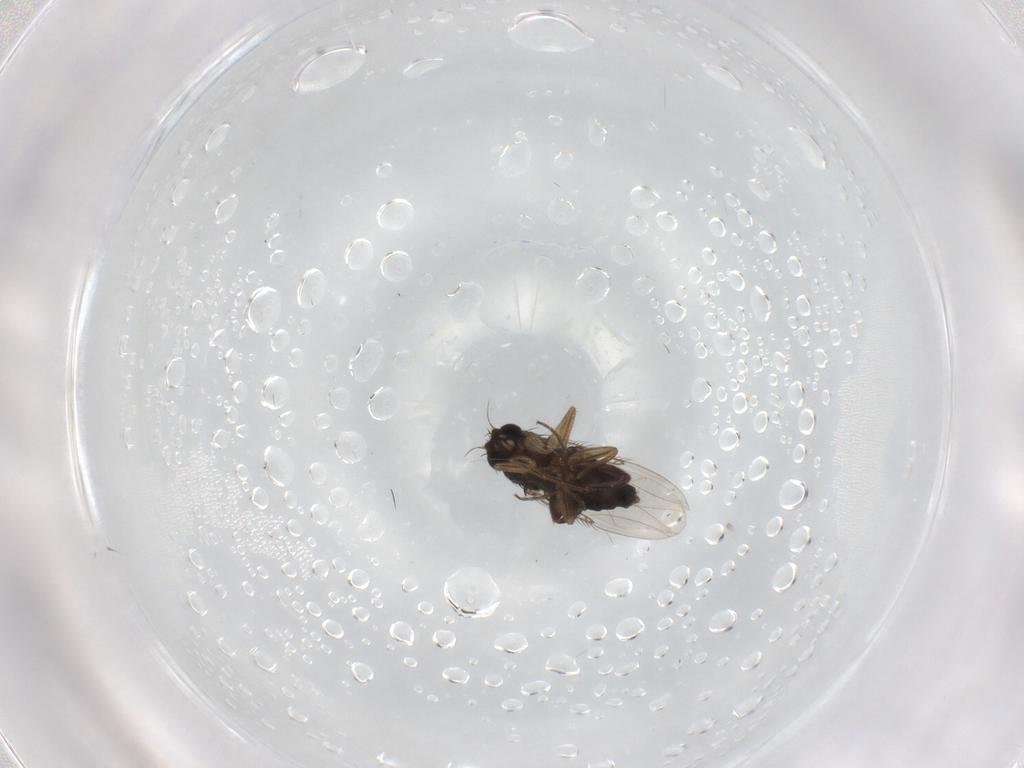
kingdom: Animalia
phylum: Arthropoda
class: Insecta
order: Diptera
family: Phoridae
